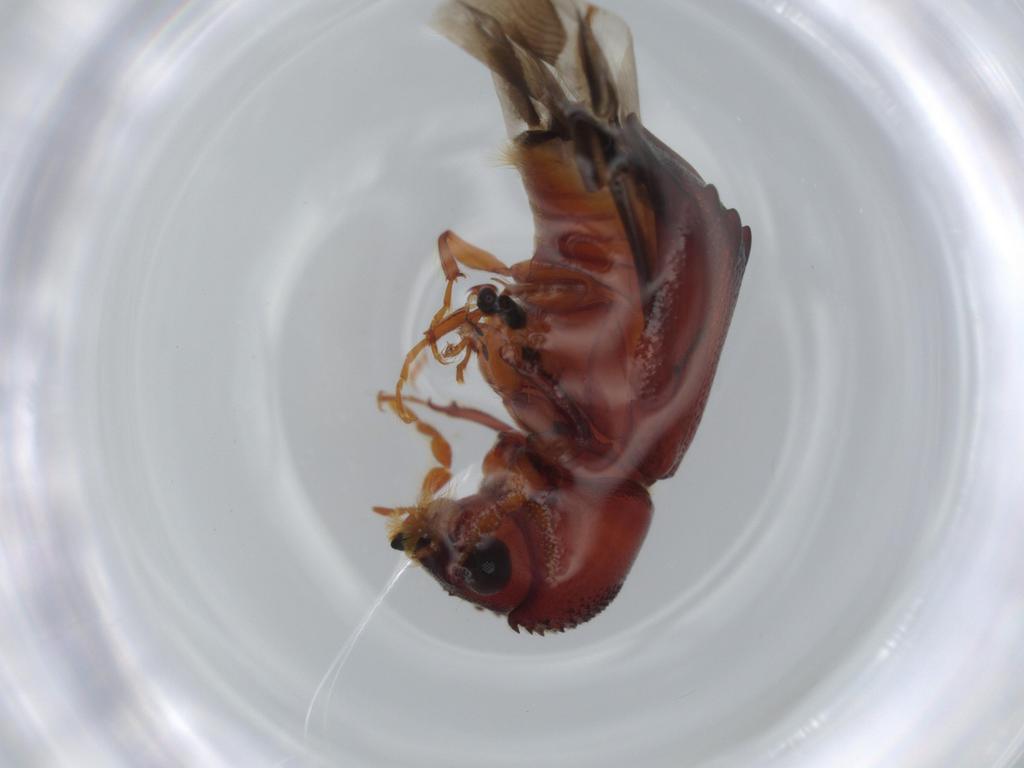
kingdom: Animalia
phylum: Arthropoda
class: Insecta
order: Coleoptera
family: Bostrichidae
